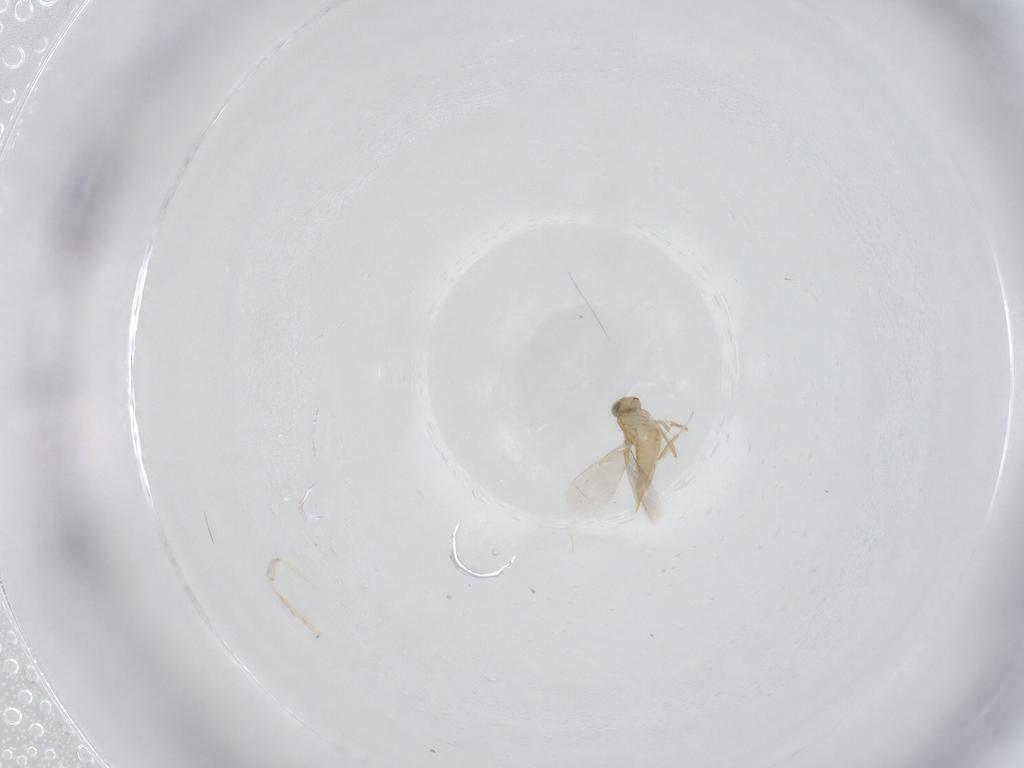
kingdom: Animalia
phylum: Arthropoda
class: Insecta
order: Hymenoptera
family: Aphelinidae
